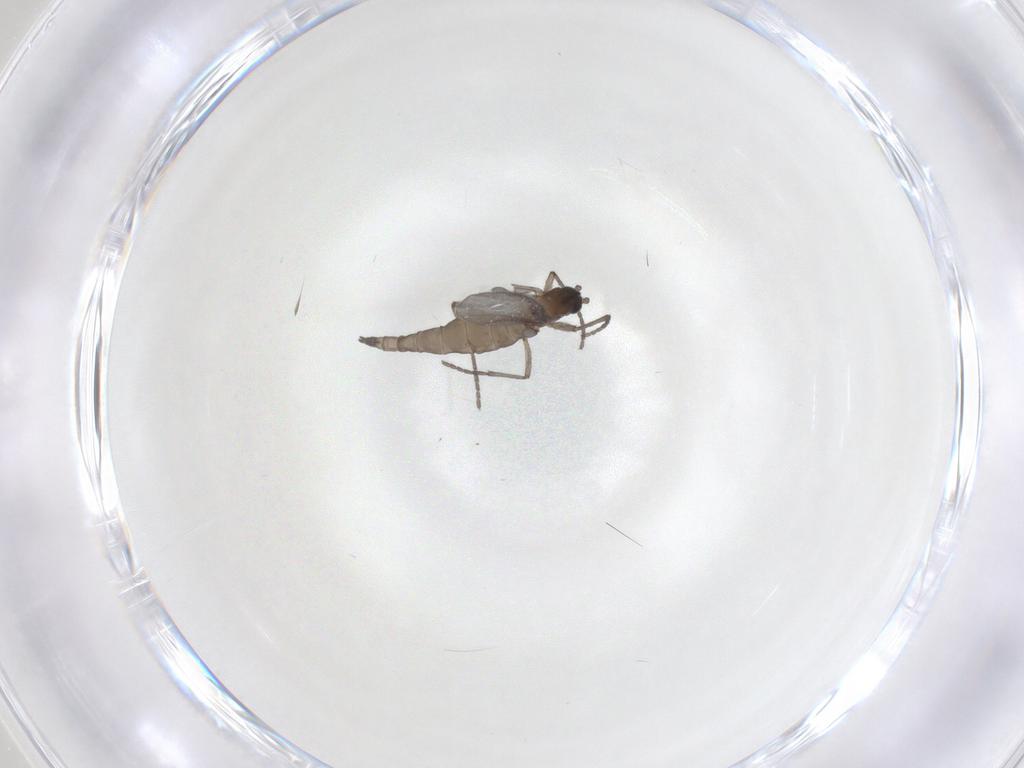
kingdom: Animalia
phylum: Arthropoda
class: Insecta
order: Diptera
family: Sciaridae
